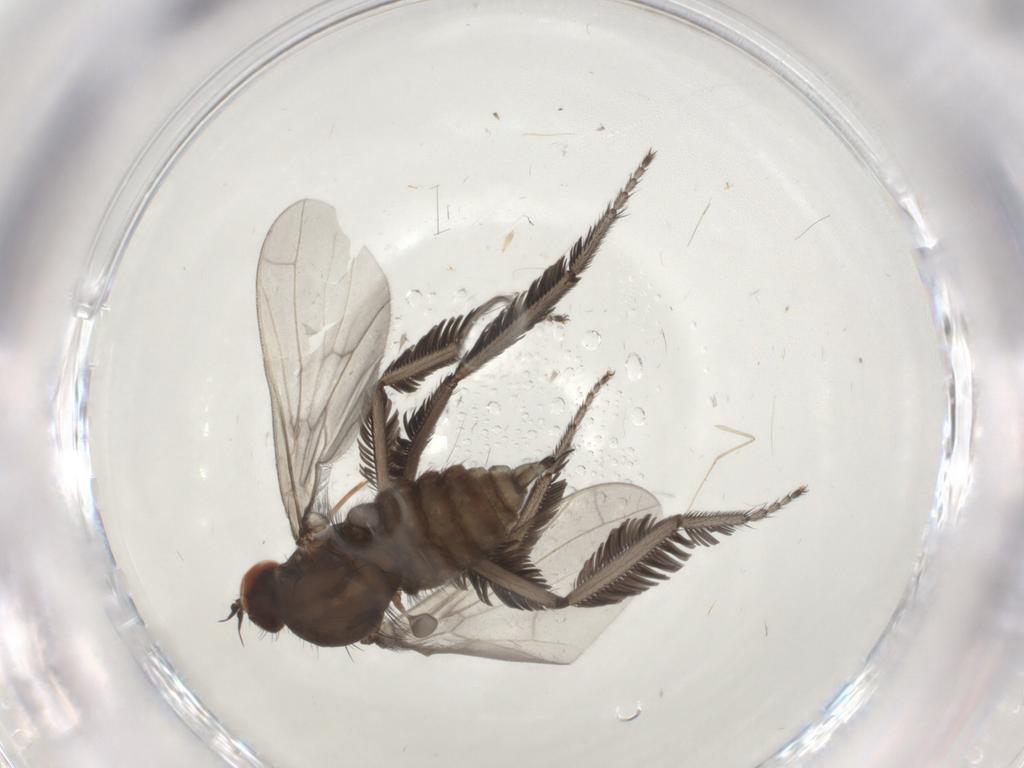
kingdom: Animalia
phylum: Arthropoda
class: Insecta
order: Diptera
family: Empididae
